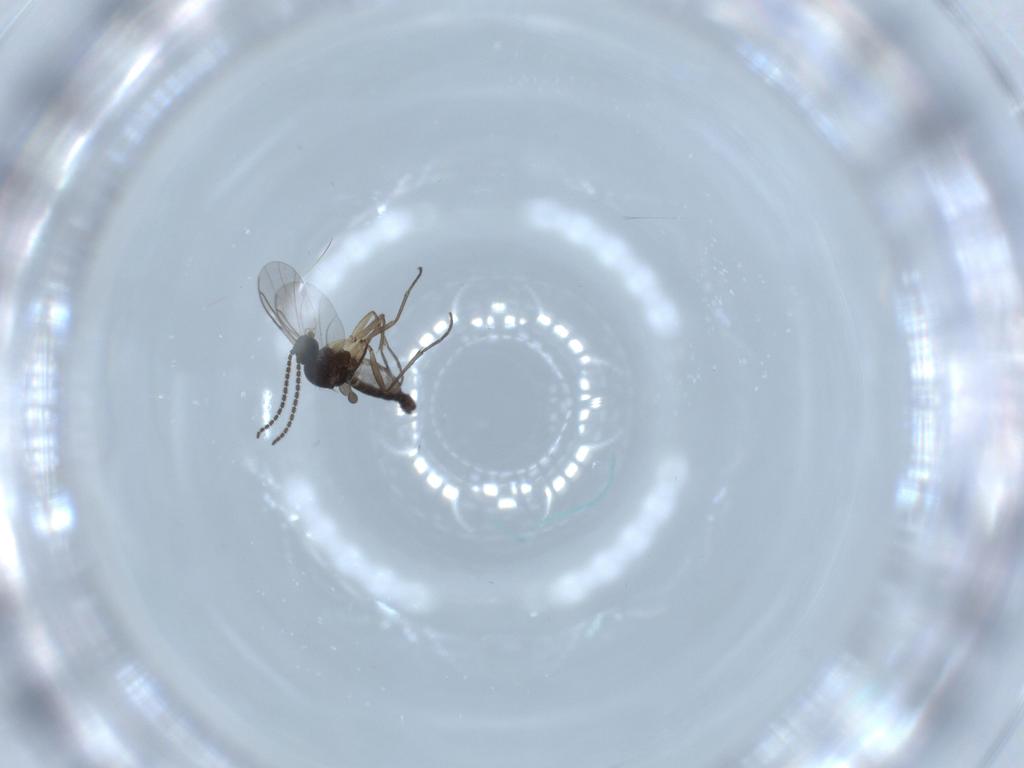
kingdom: Animalia
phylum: Arthropoda
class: Insecta
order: Diptera
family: Sciaridae
